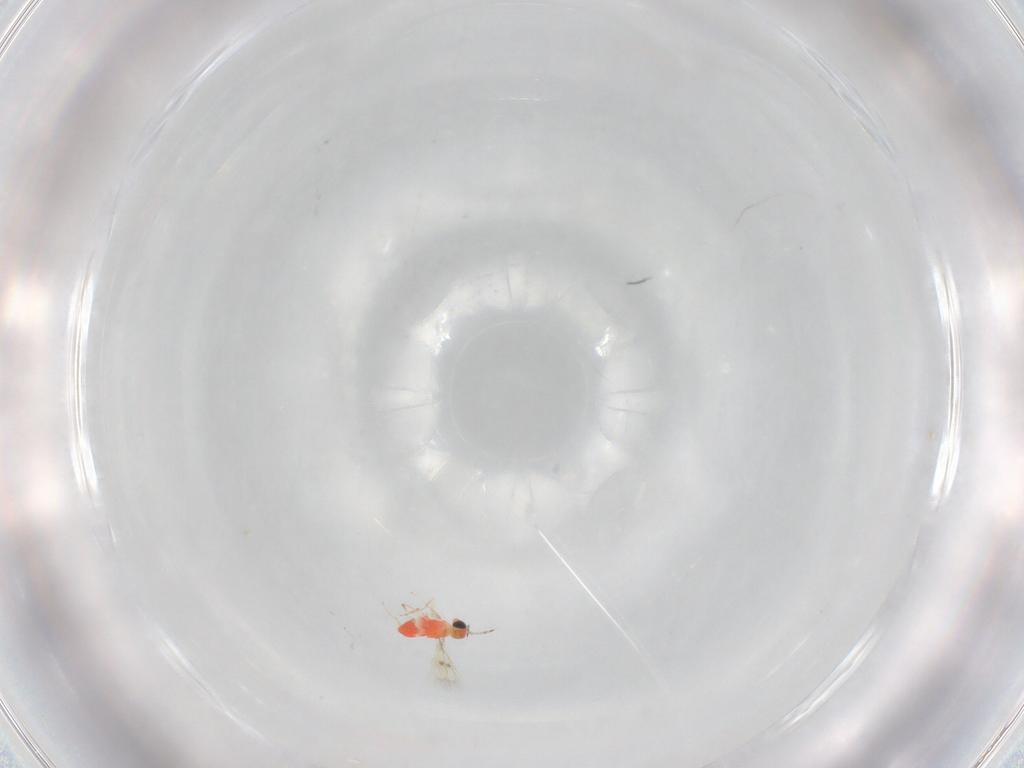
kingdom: Animalia
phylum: Arthropoda
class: Insecta
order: Hymenoptera
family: Trichogrammatidae
